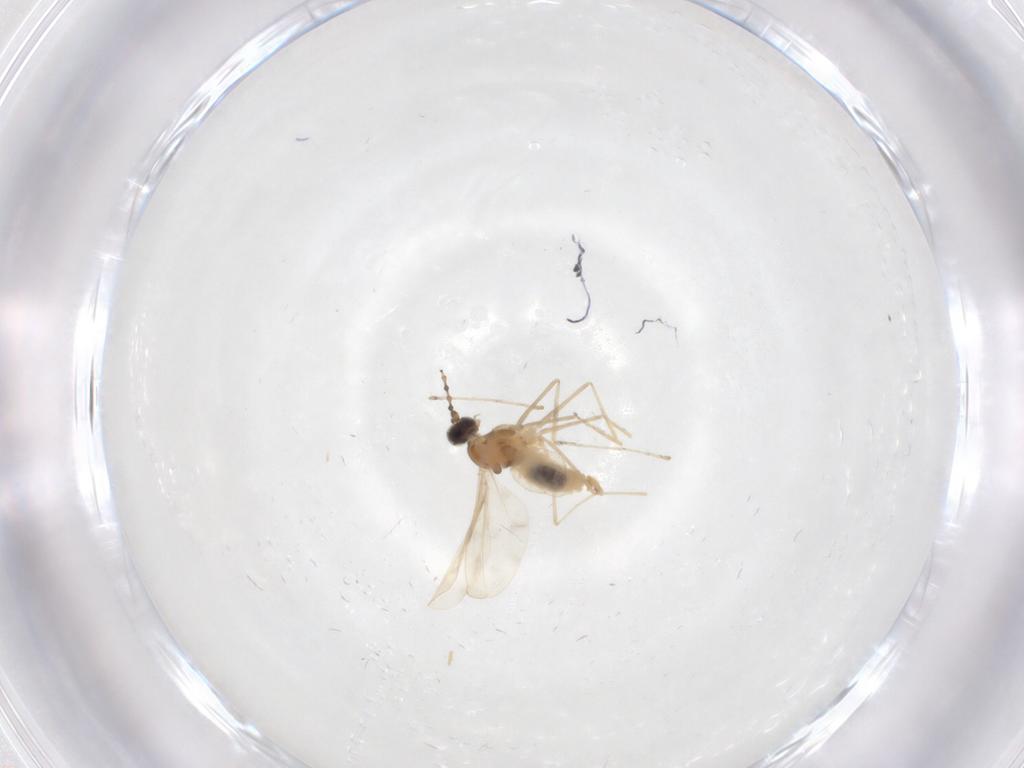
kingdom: Animalia
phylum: Arthropoda
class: Insecta
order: Diptera
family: Cecidomyiidae
